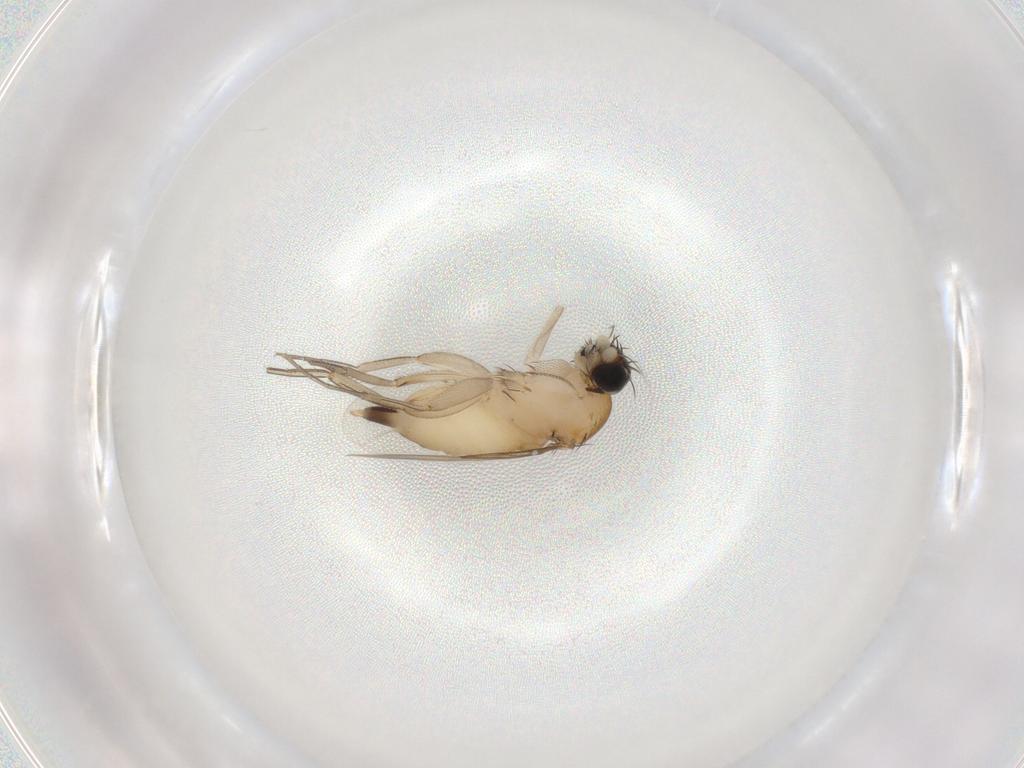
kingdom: Animalia
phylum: Arthropoda
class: Insecta
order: Diptera
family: Phoridae
